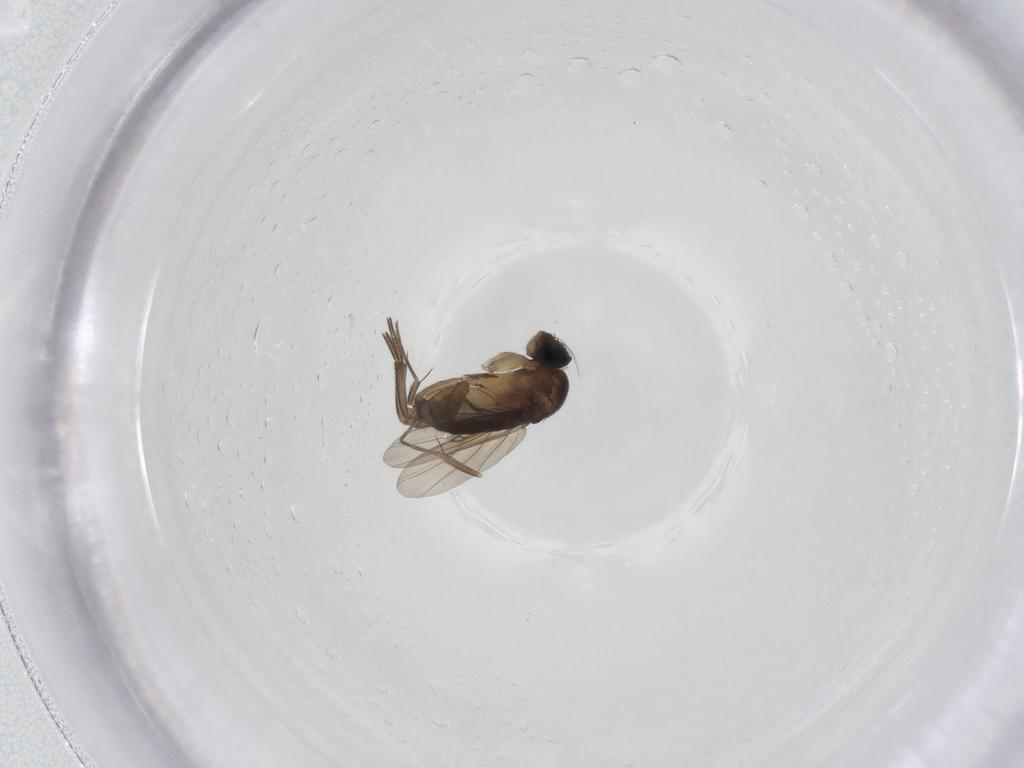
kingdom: Animalia
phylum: Arthropoda
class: Insecta
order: Diptera
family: Phoridae
